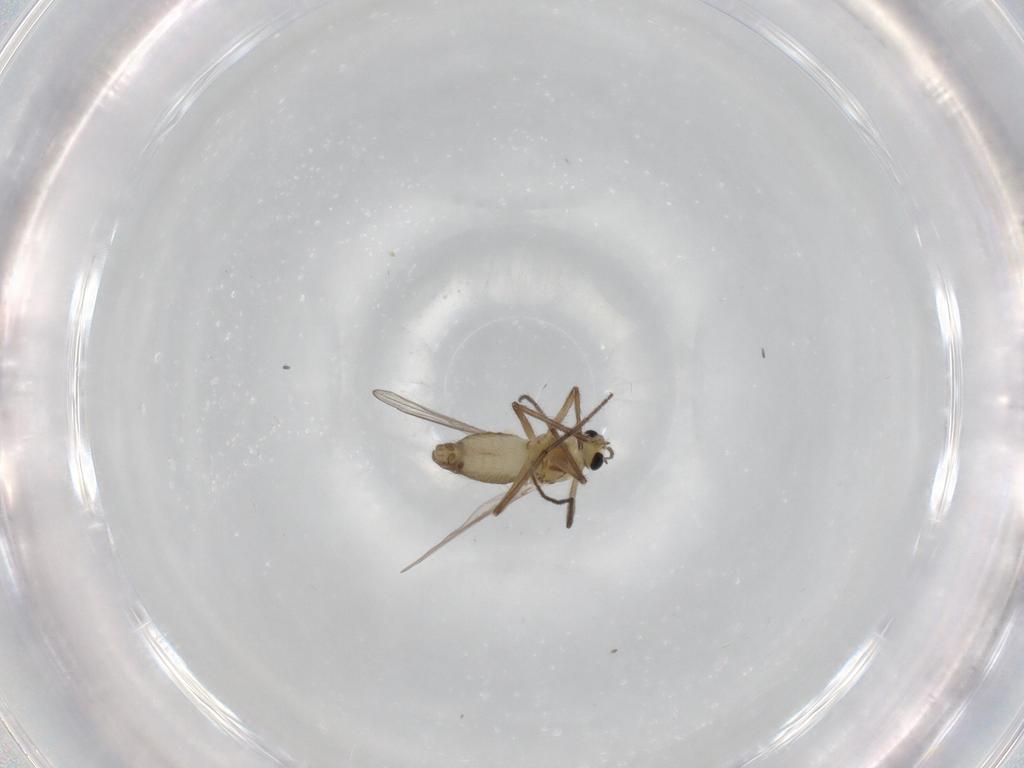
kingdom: Animalia
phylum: Arthropoda
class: Insecta
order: Diptera
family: Chironomidae
